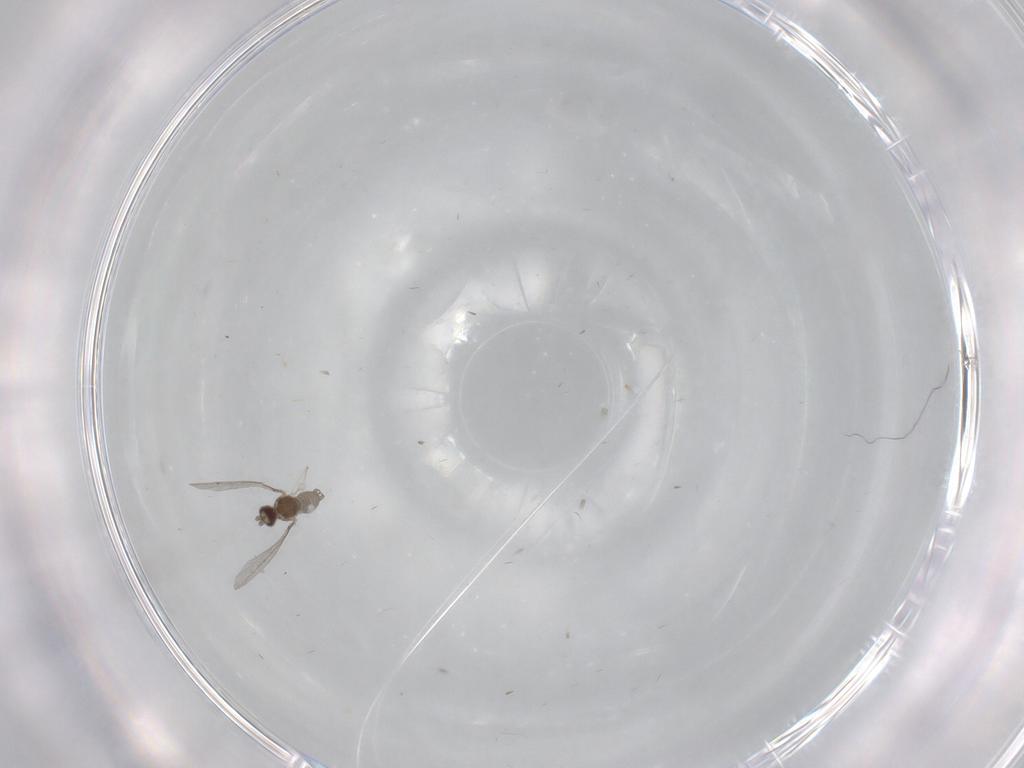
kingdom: Animalia
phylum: Arthropoda
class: Insecta
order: Diptera
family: Cecidomyiidae
